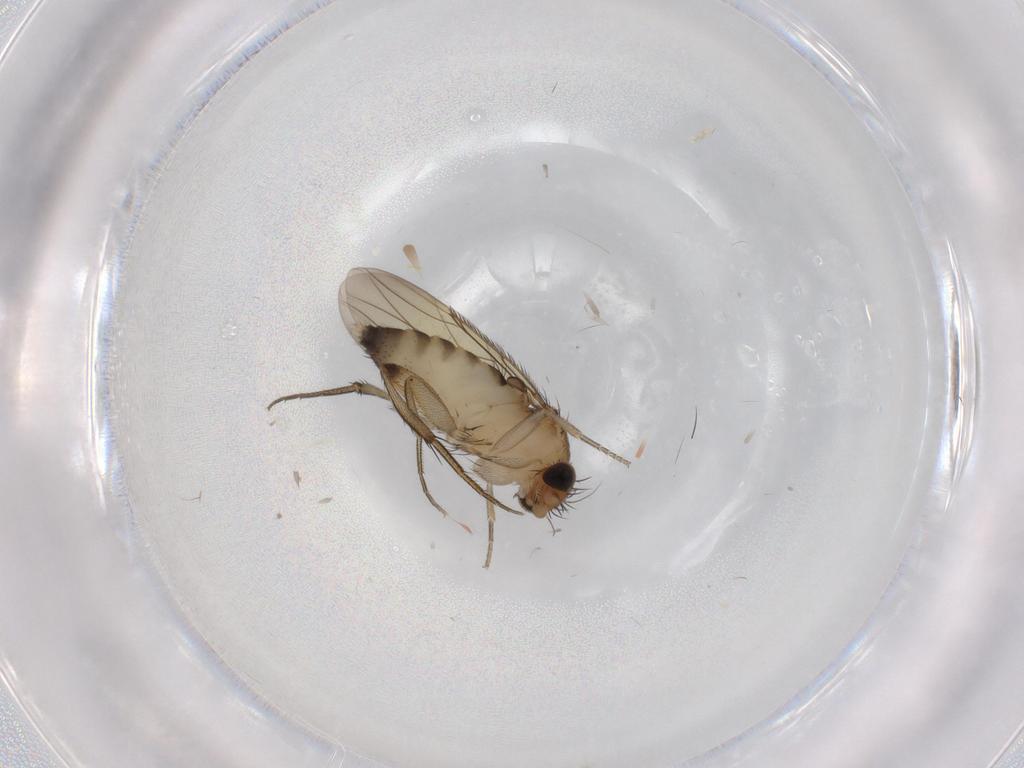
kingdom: Animalia
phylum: Arthropoda
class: Insecta
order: Diptera
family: Phoridae
